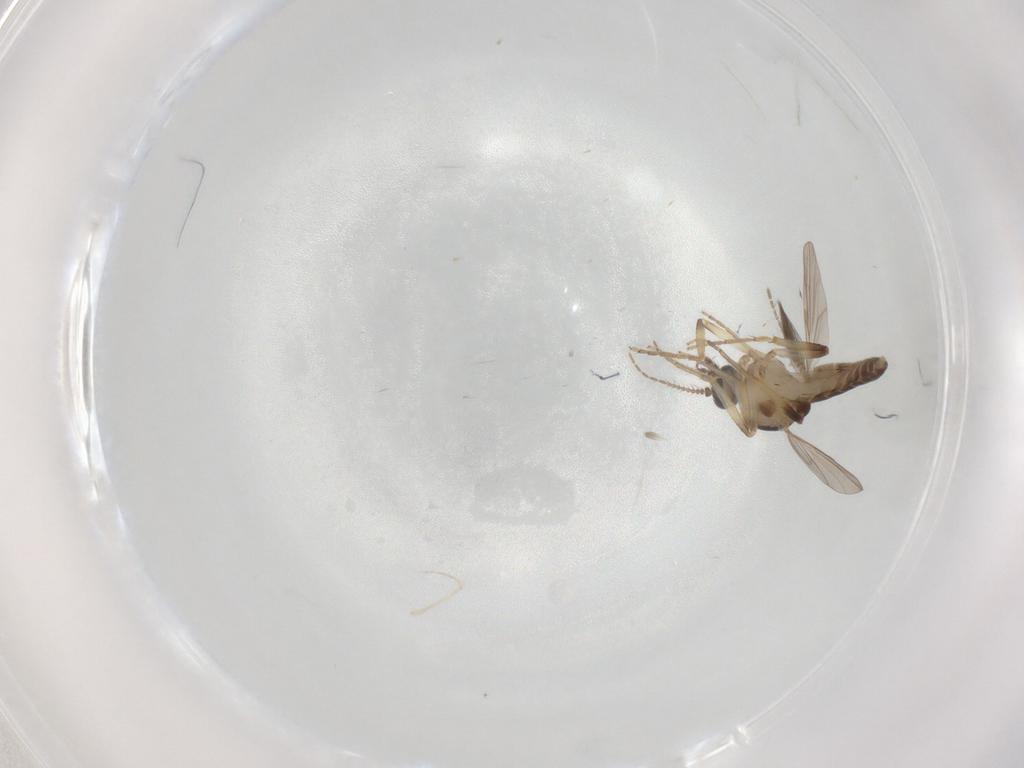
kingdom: Animalia
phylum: Arthropoda
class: Insecta
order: Diptera
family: Ceratopogonidae
